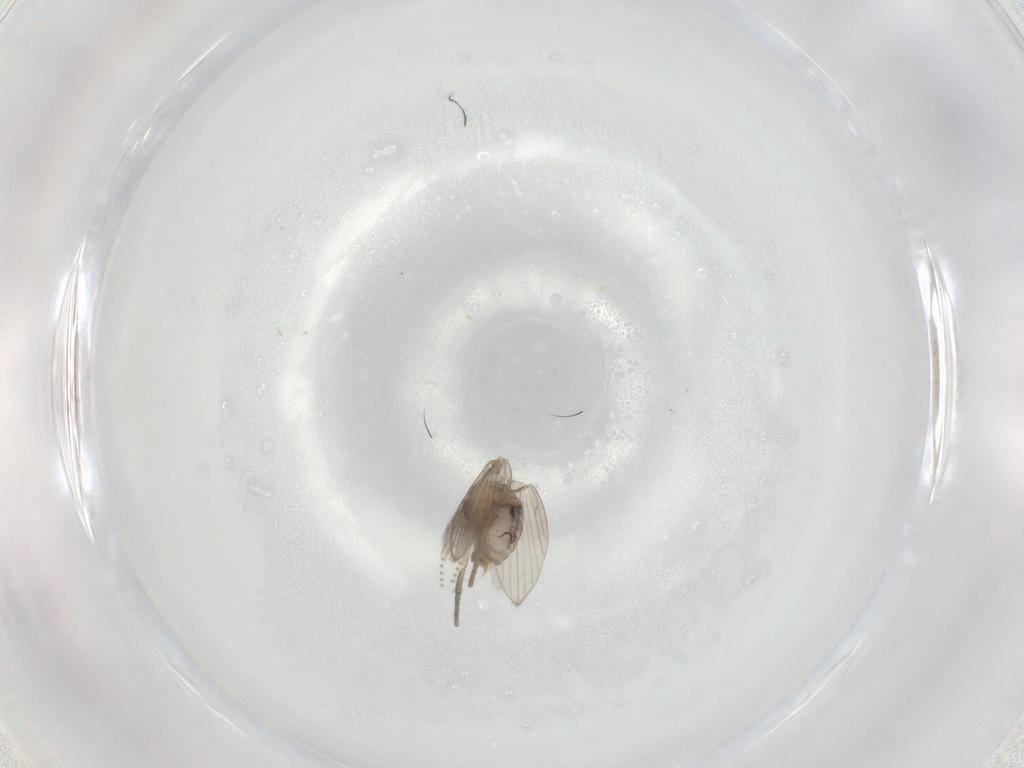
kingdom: Animalia
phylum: Arthropoda
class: Insecta
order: Diptera
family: Psychodidae
